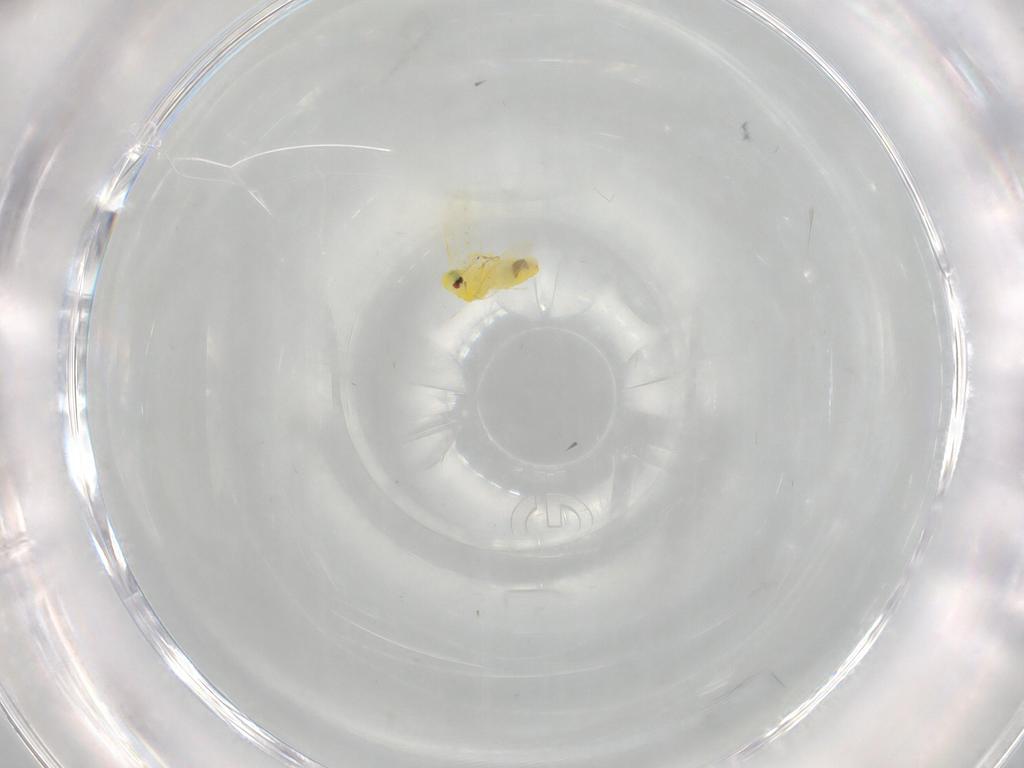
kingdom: Animalia
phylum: Arthropoda
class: Insecta
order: Hemiptera
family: Aleyrodidae
